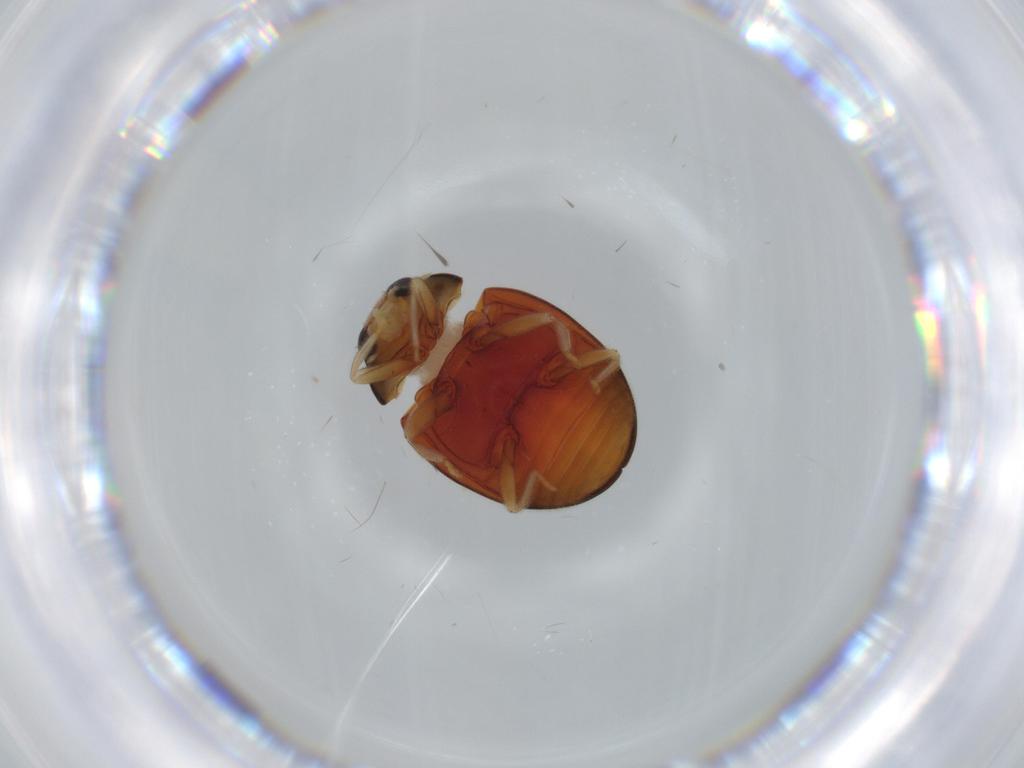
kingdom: Animalia
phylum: Arthropoda
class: Insecta
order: Coleoptera
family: Coccinellidae
